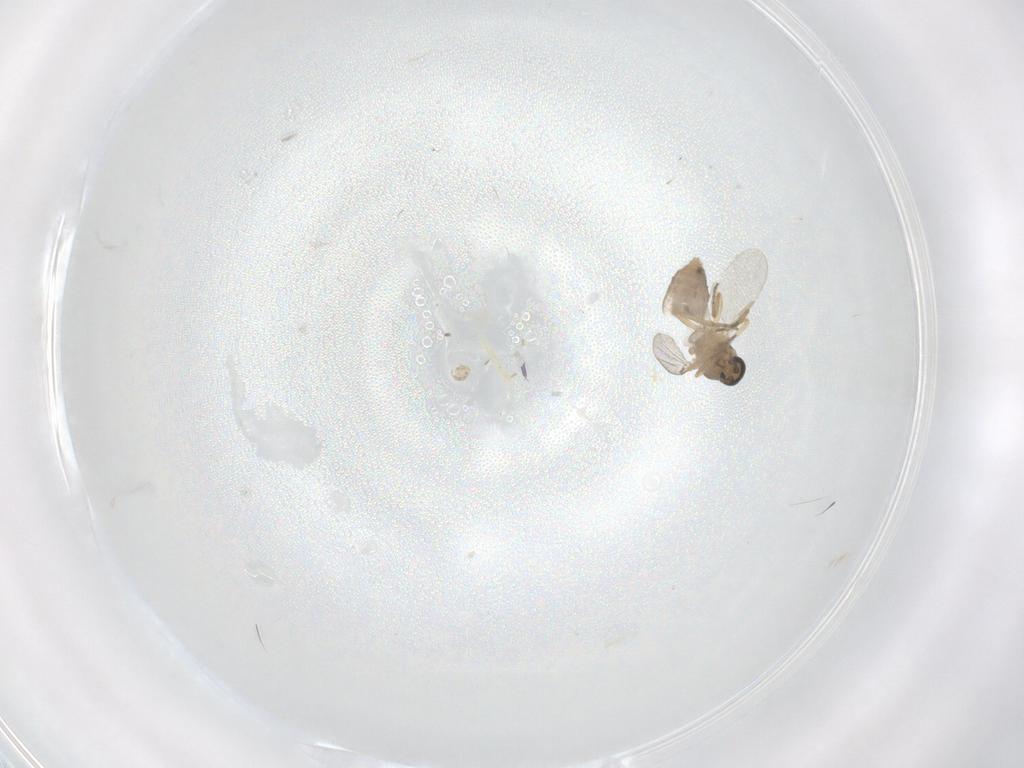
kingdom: Animalia
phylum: Arthropoda
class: Insecta
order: Diptera
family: Ceratopogonidae
